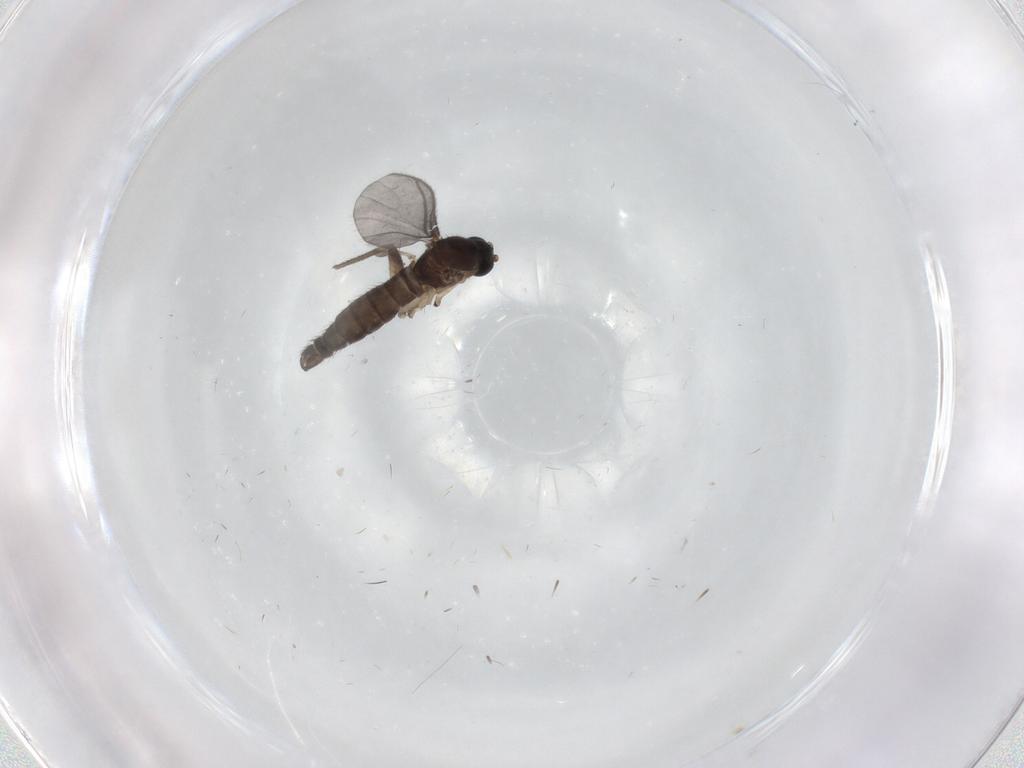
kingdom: Animalia
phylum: Arthropoda
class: Insecta
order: Diptera
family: Sciaridae
